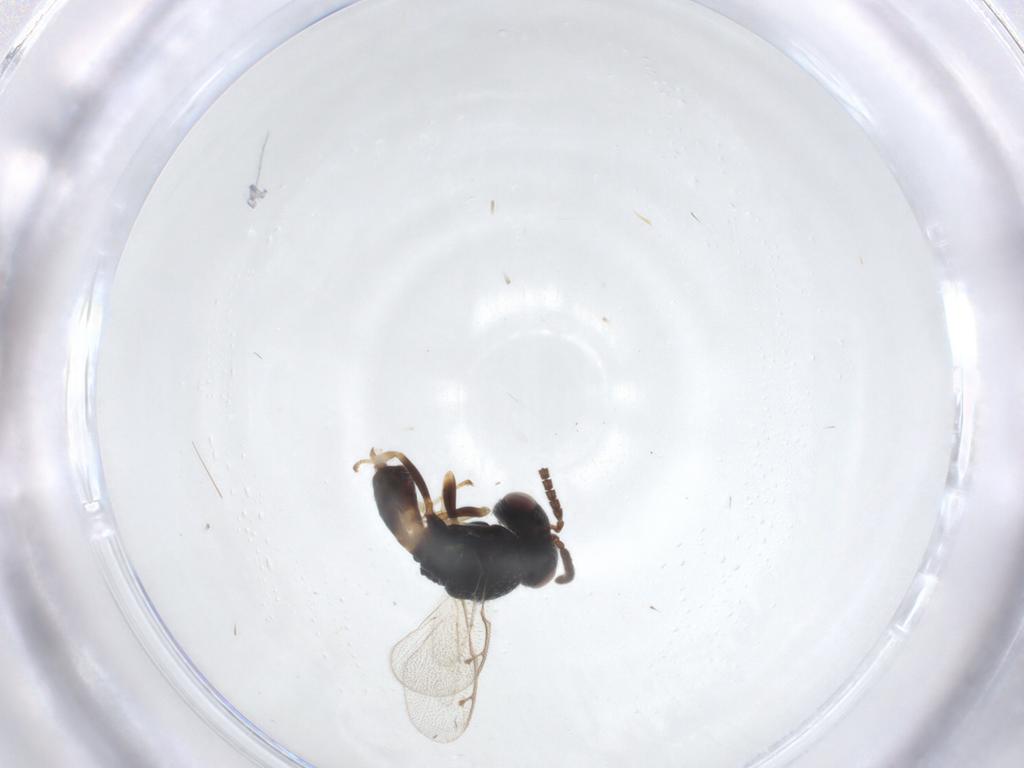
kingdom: Animalia
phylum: Arthropoda
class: Insecta
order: Hymenoptera
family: Pteromalidae
